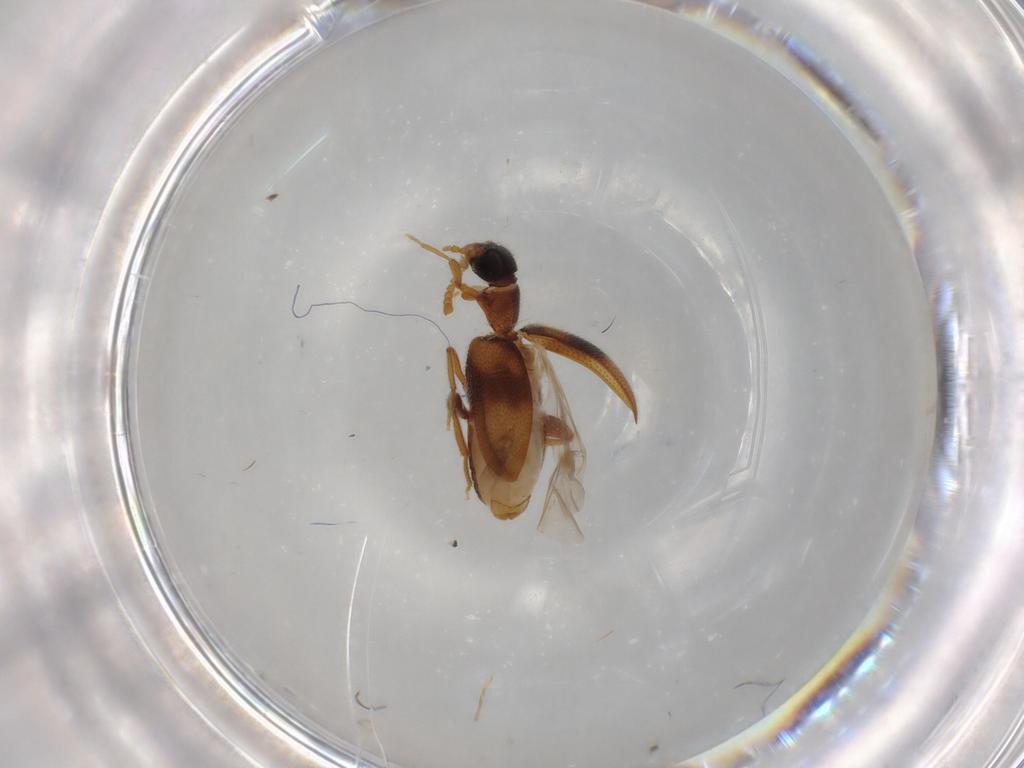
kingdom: Animalia
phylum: Arthropoda
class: Insecta
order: Coleoptera
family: Aderidae
